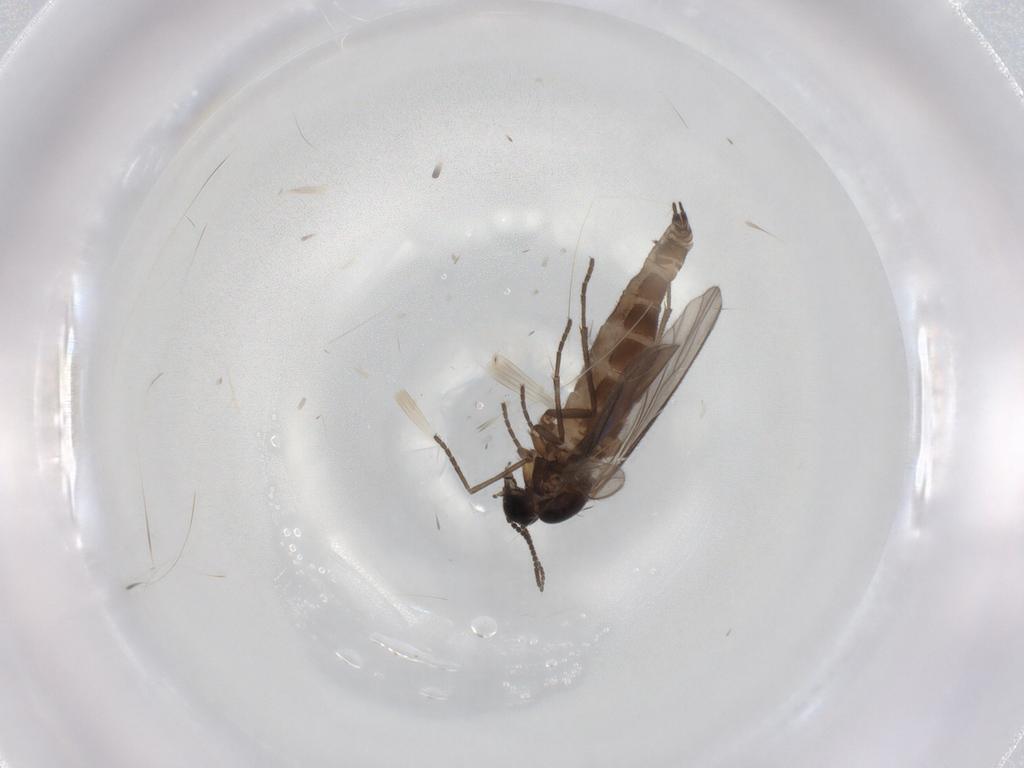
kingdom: Animalia
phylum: Arthropoda
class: Insecta
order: Diptera
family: Sciaridae
